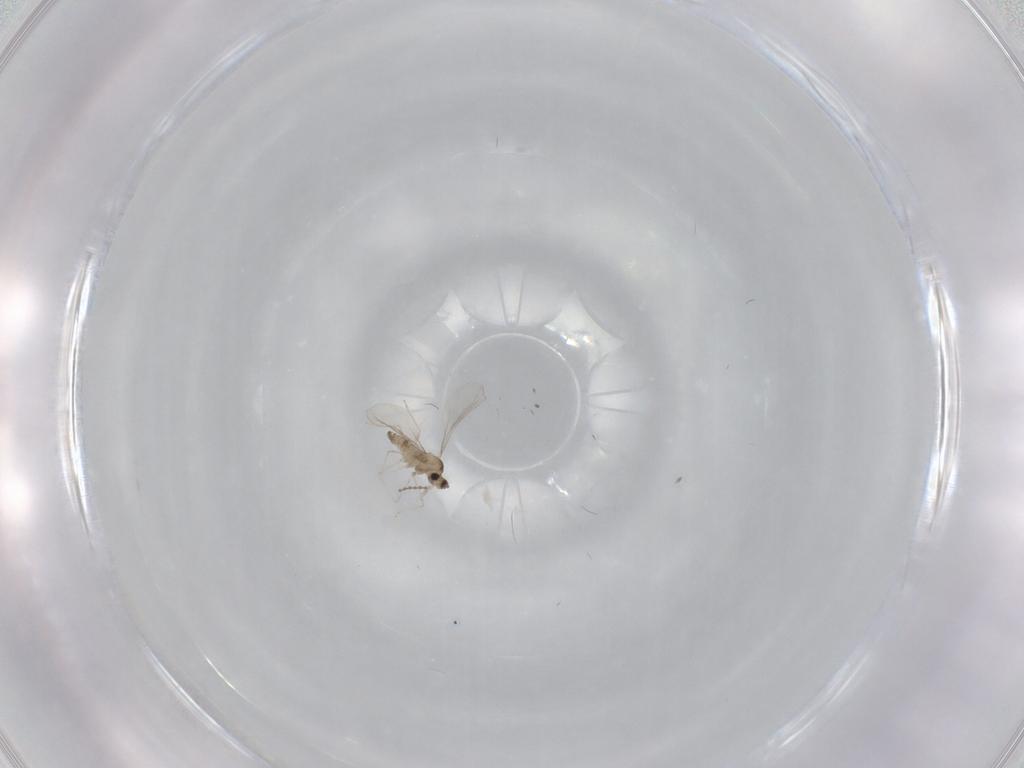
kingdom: Animalia
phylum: Arthropoda
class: Insecta
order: Diptera
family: Cecidomyiidae
